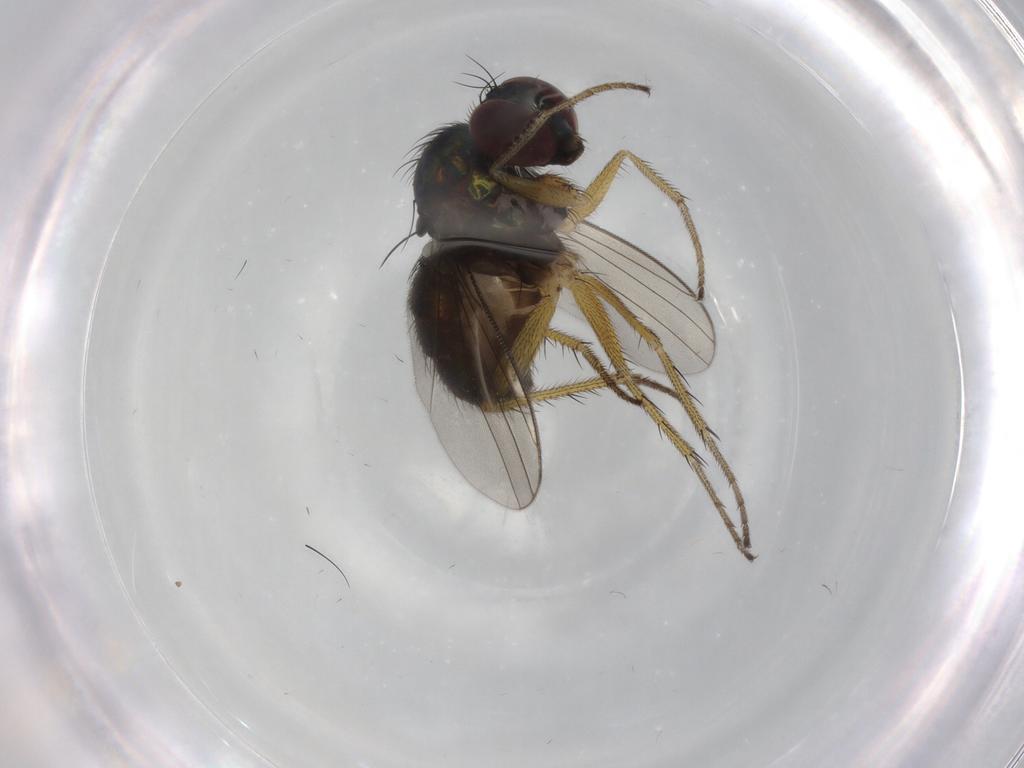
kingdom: Animalia
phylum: Arthropoda
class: Insecta
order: Diptera
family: Dolichopodidae
